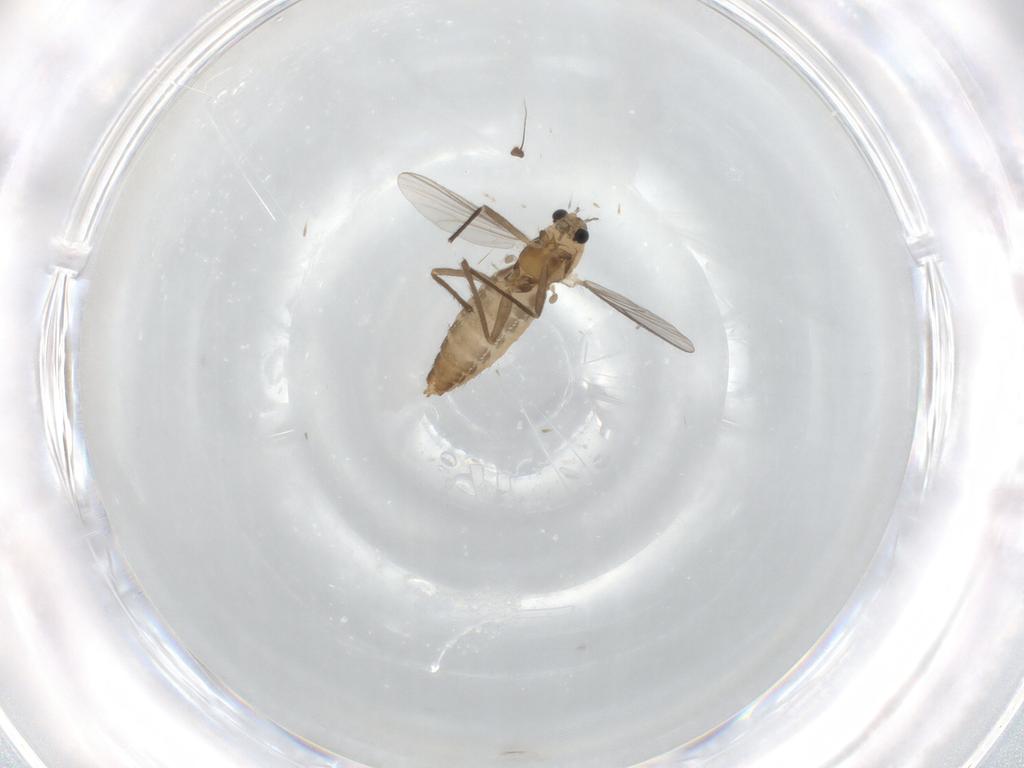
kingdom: Animalia
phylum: Arthropoda
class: Insecta
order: Diptera
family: Chironomidae
